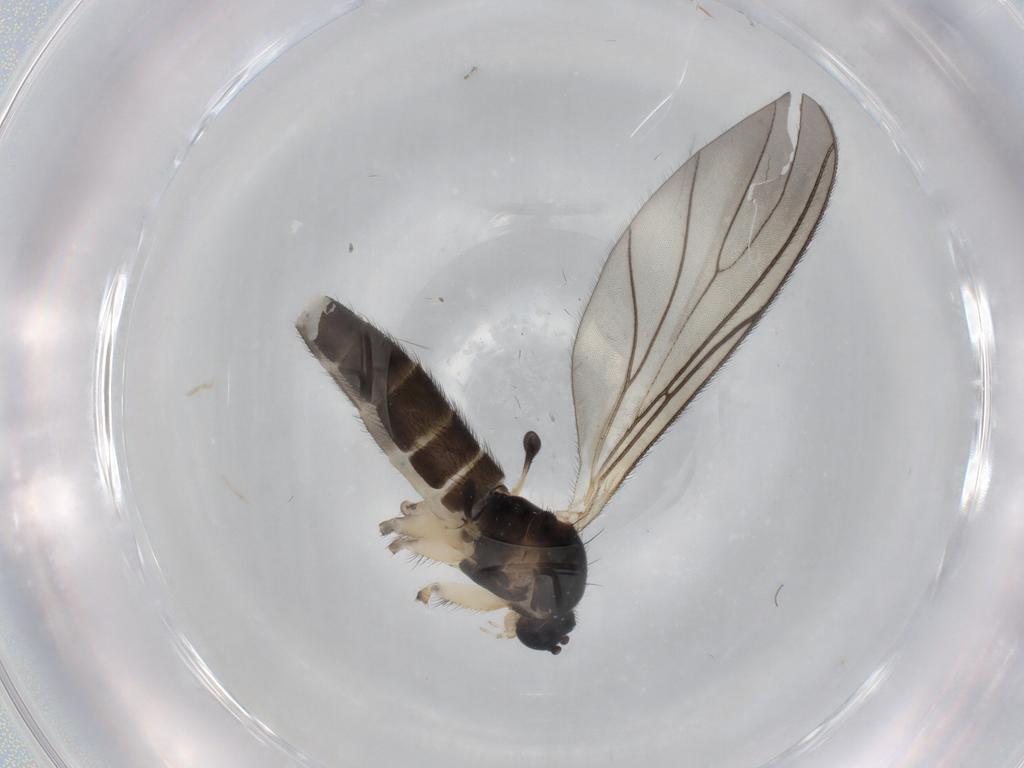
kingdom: Animalia
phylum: Arthropoda
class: Insecta
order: Diptera
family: Sciaridae
